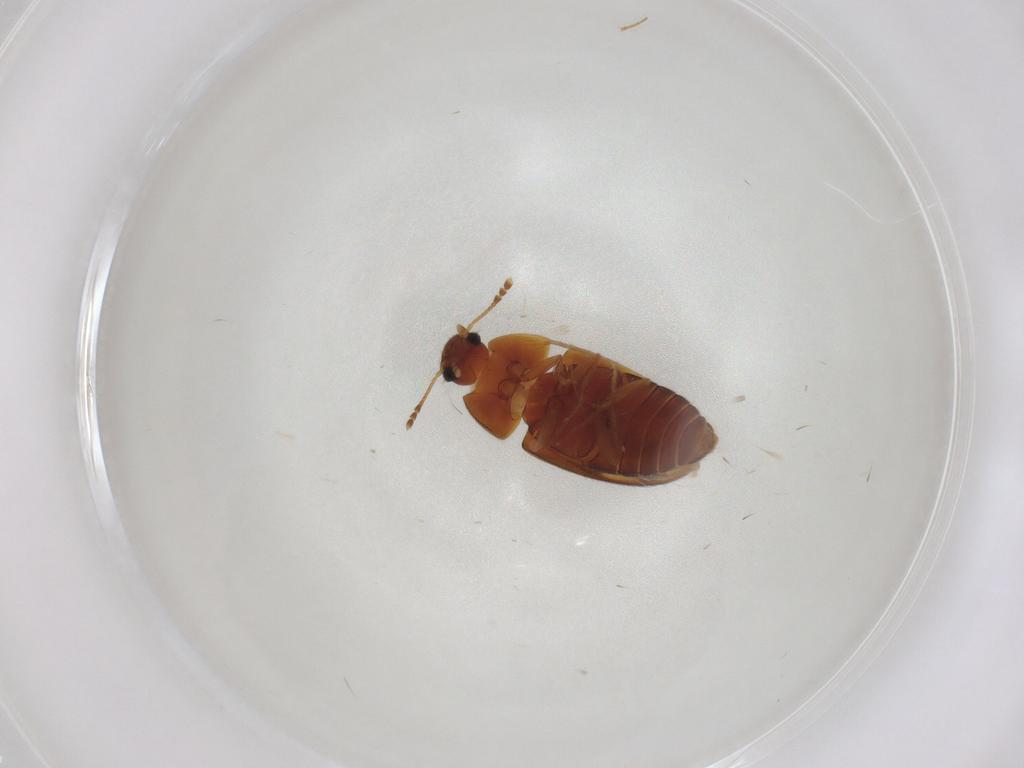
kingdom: Animalia
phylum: Arthropoda
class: Insecta
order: Coleoptera
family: Mycetophagidae
